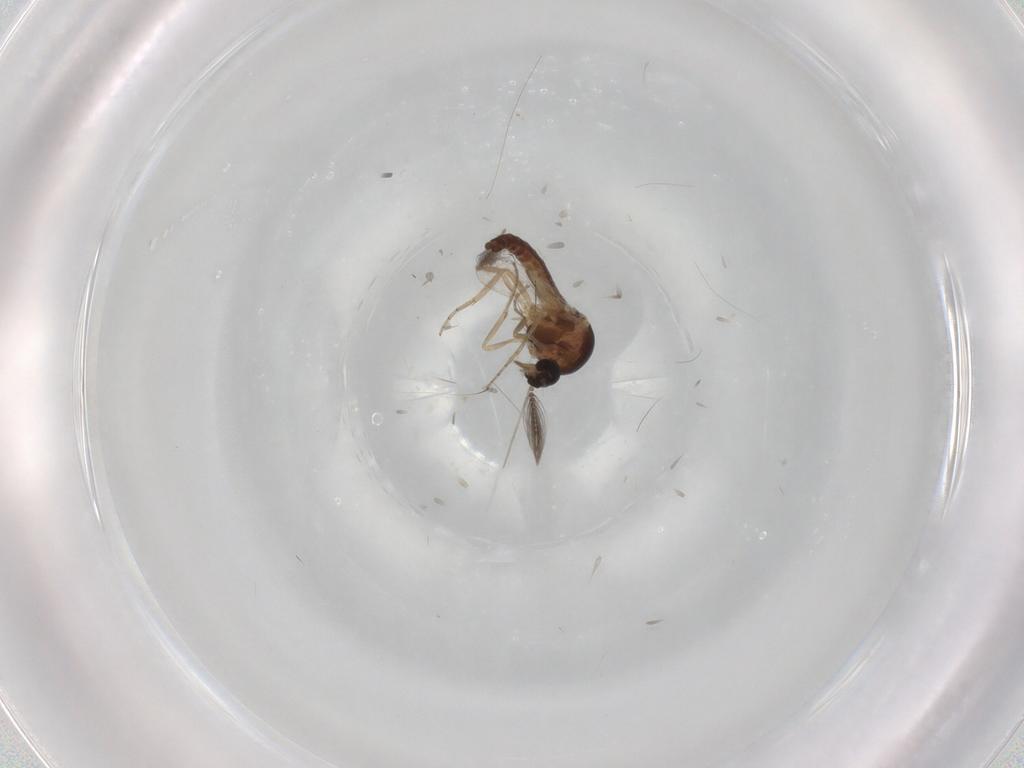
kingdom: Animalia
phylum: Arthropoda
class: Insecta
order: Diptera
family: Ceratopogonidae
